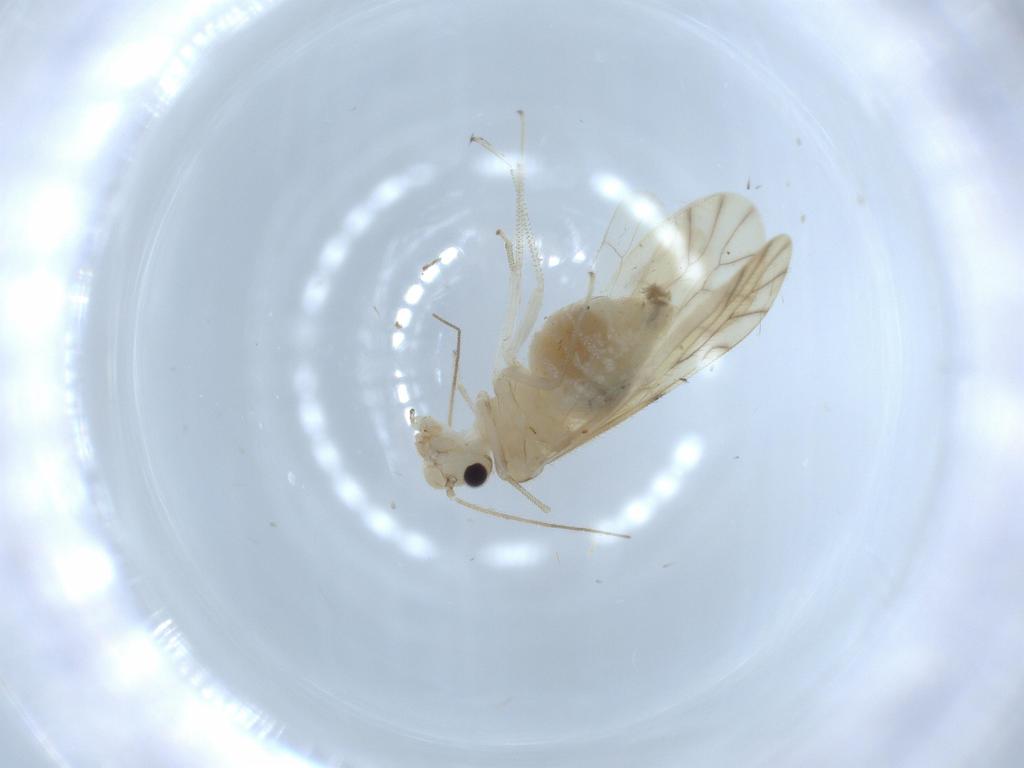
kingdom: Animalia
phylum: Arthropoda
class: Insecta
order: Psocodea
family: Caeciliusidae
